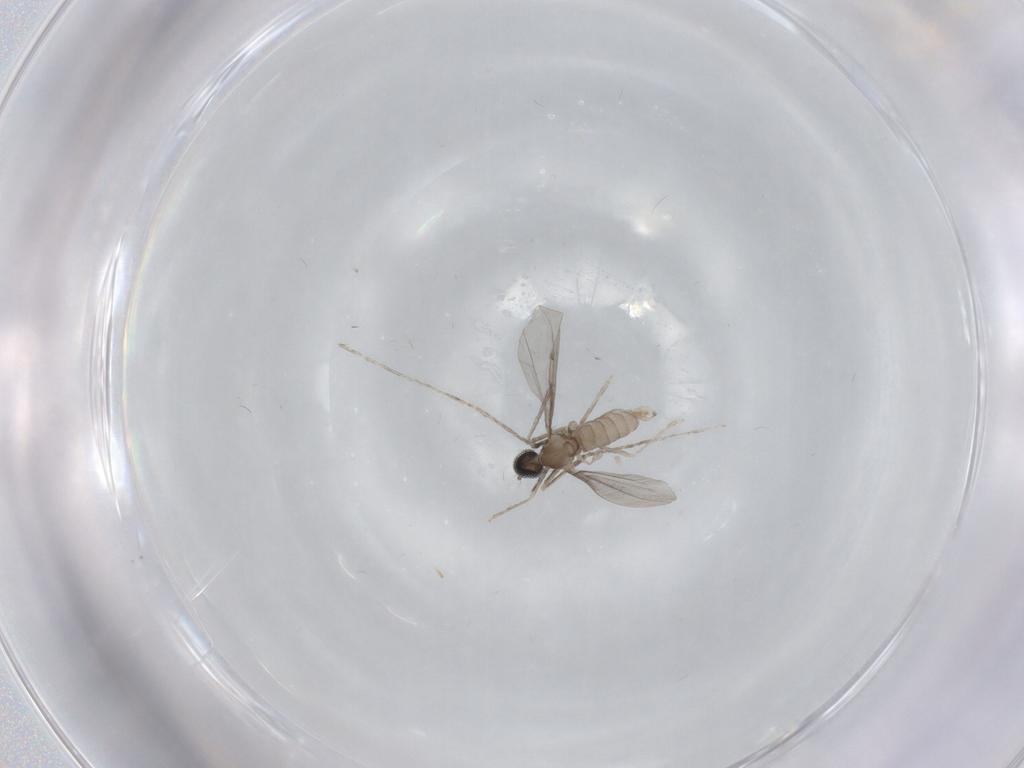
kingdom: Animalia
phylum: Arthropoda
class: Insecta
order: Diptera
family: Cecidomyiidae
